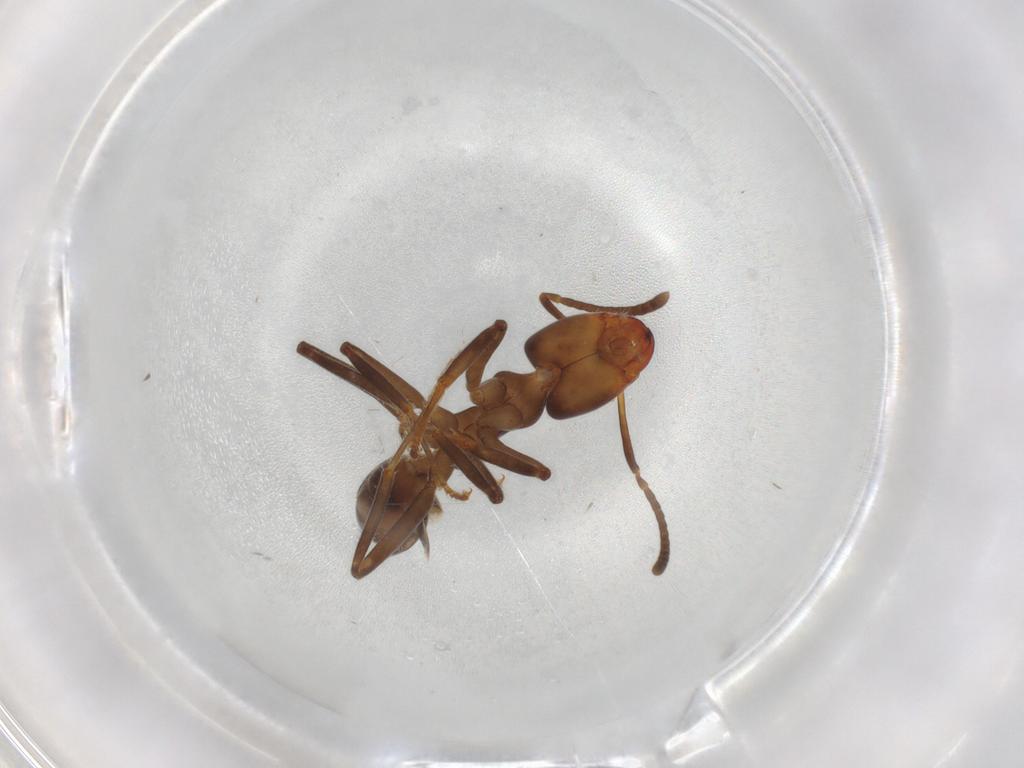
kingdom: Animalia
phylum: Arthropoda
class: Insecta
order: Hymenoptera
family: Formicidae
